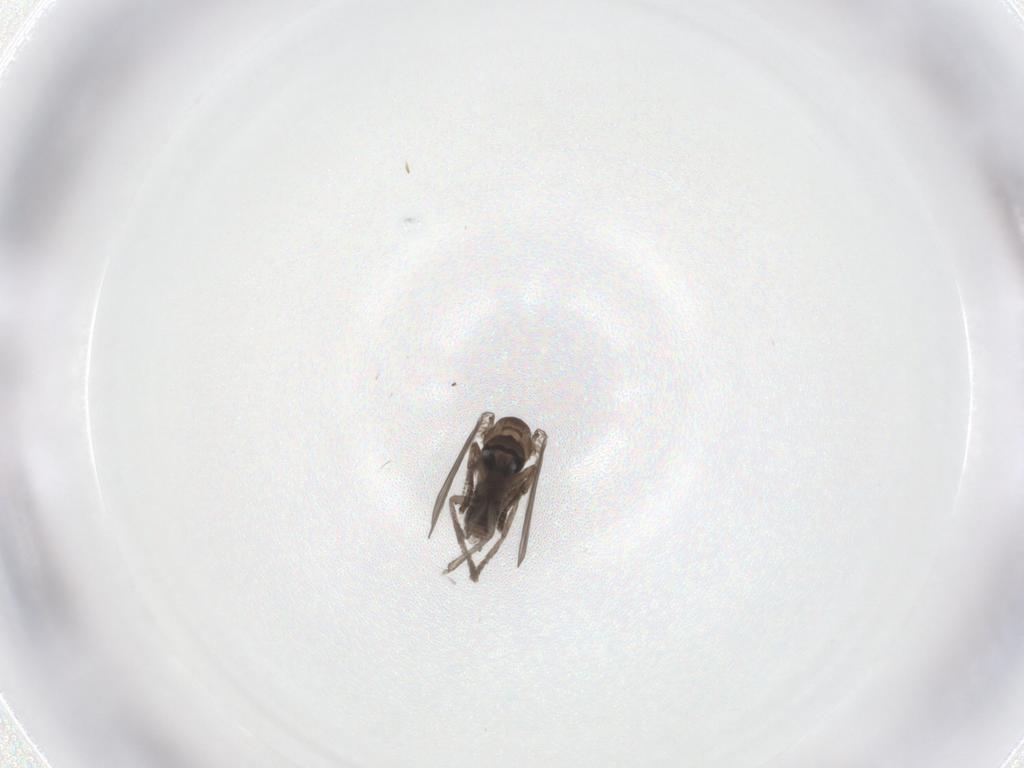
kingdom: Animalia
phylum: Arthropoda
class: Insecta
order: Diptera
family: Psychodidae
